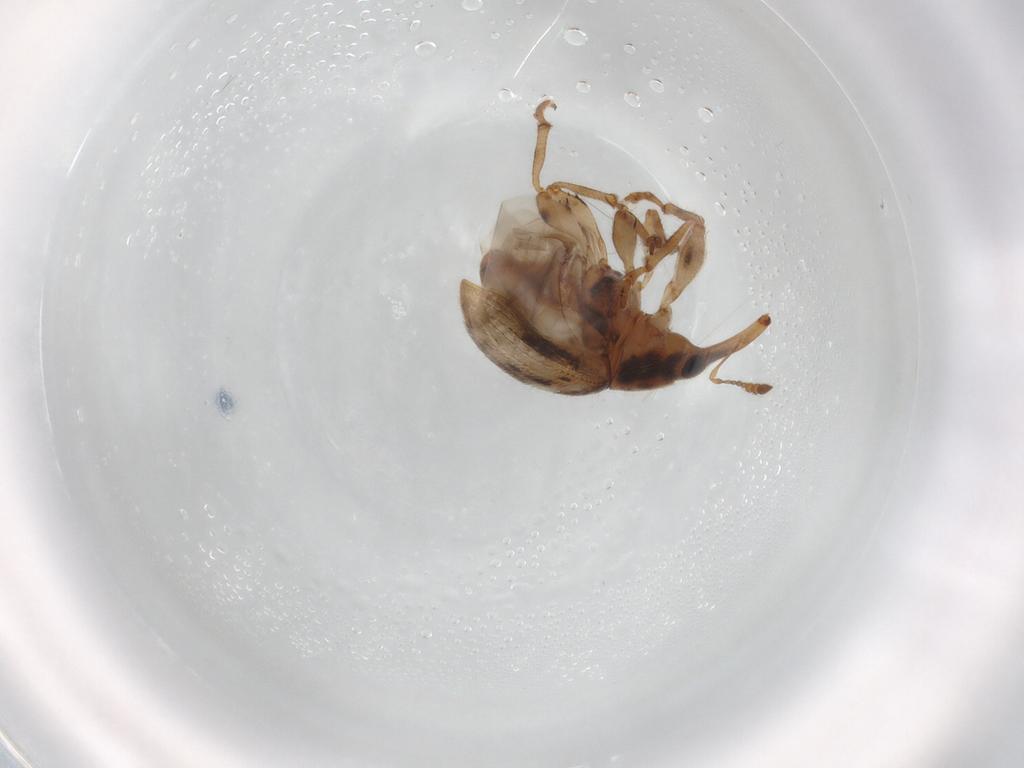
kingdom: Animalia
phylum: Arthropoda
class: Insecta
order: Coleoptera
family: Brentidae
